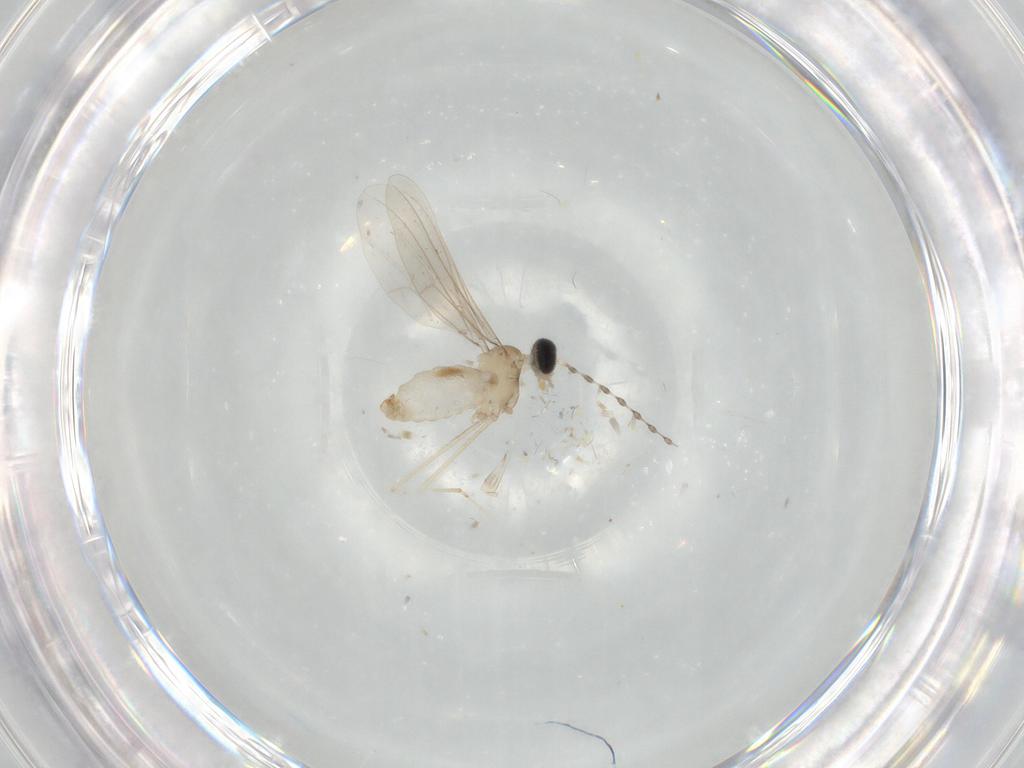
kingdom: Animalia
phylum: Arthropoda
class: Insecta
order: Diptera
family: Cecidomyiidae
